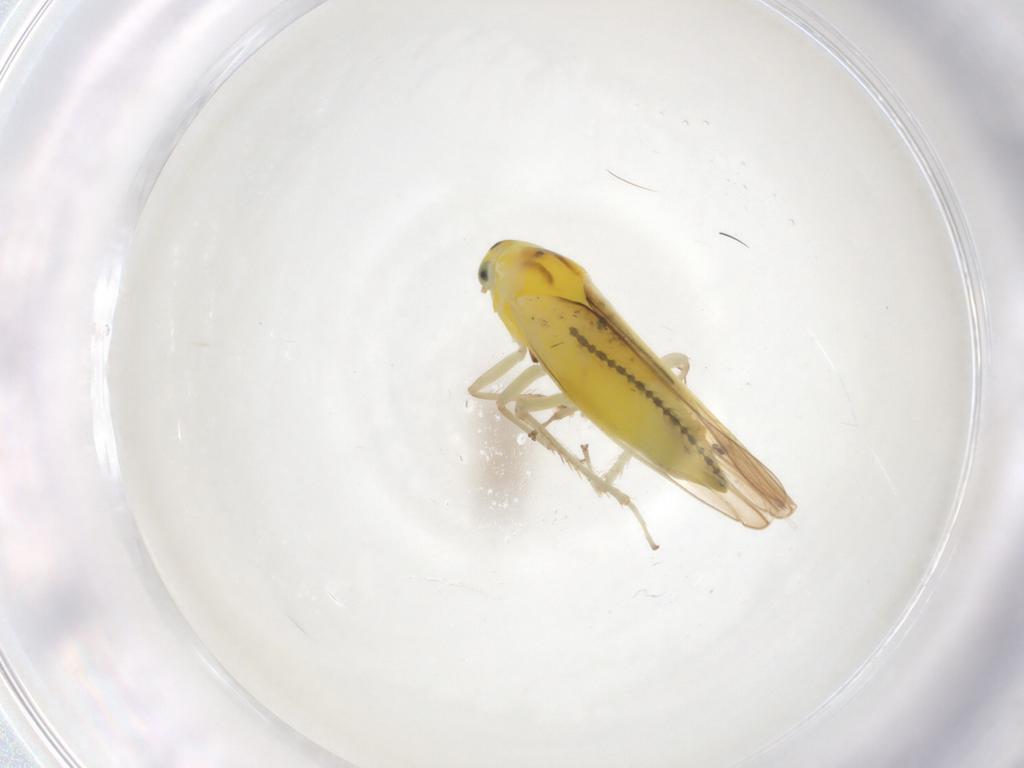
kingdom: Animalia
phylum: Arthropoda
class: Insecta
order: Hemiptera
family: Cicadellidae
